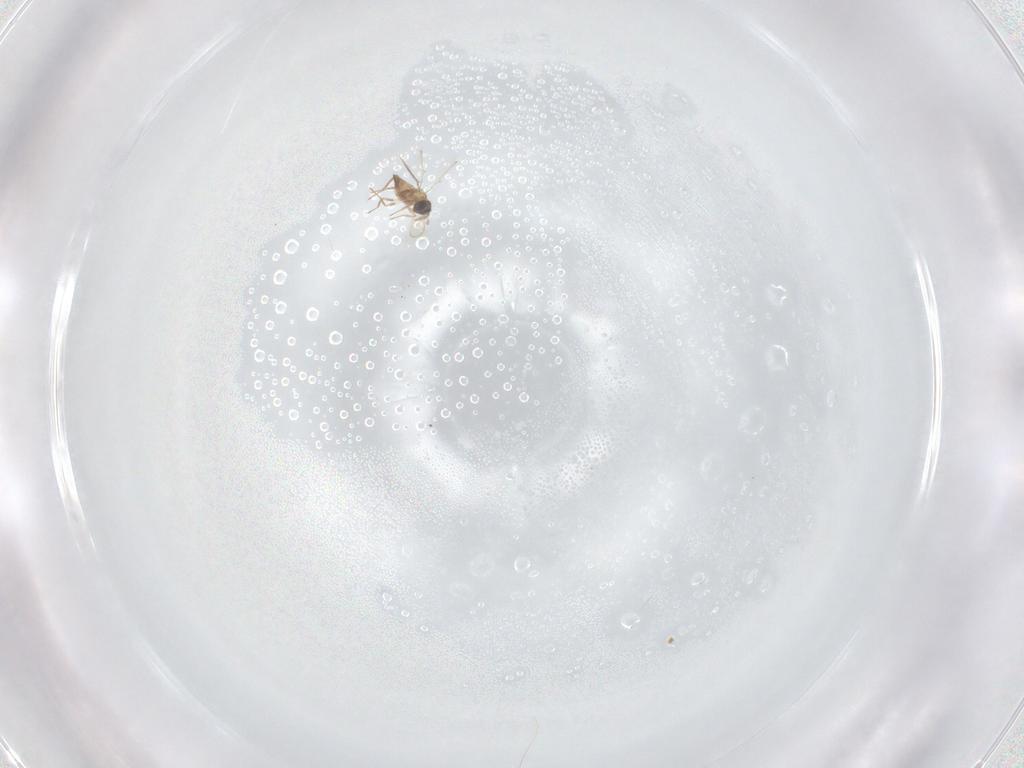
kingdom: Animalia
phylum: Arthropoda
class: Insecta
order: Hymenoptera
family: Trichogrammatidae
